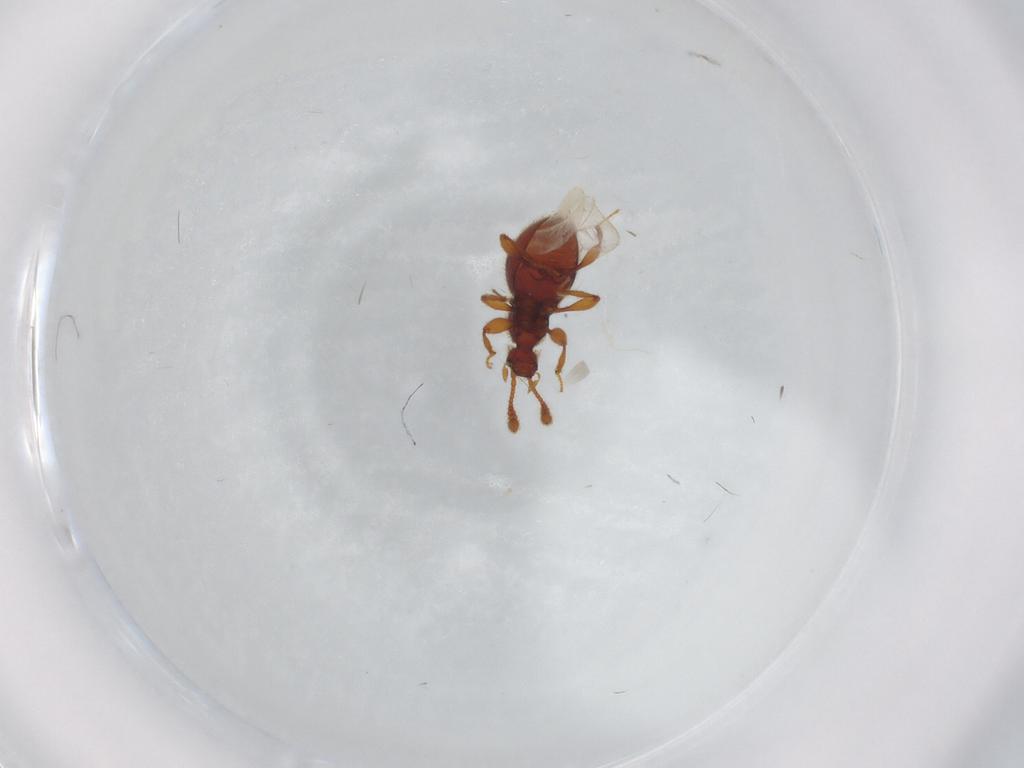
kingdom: Animalia
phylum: Arthropoda
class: Insecta
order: Coleoptera
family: Staphylinidae
